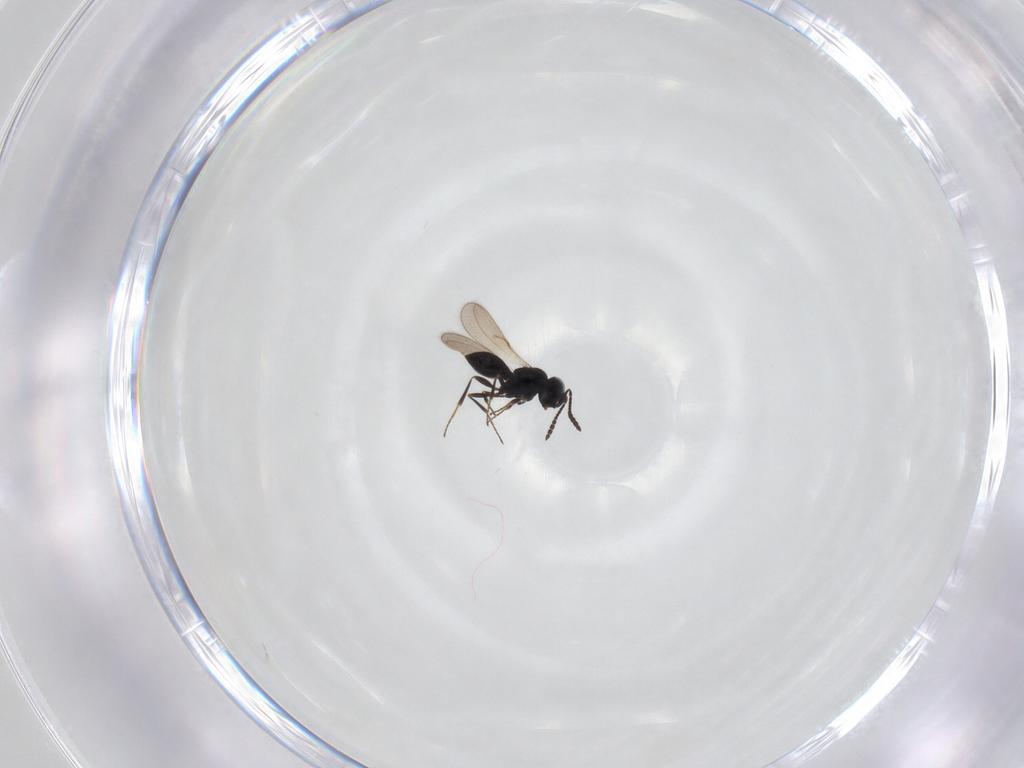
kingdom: Animalia
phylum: Arthropoda
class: Insecta
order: Hymenoptera
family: Scelionidae
